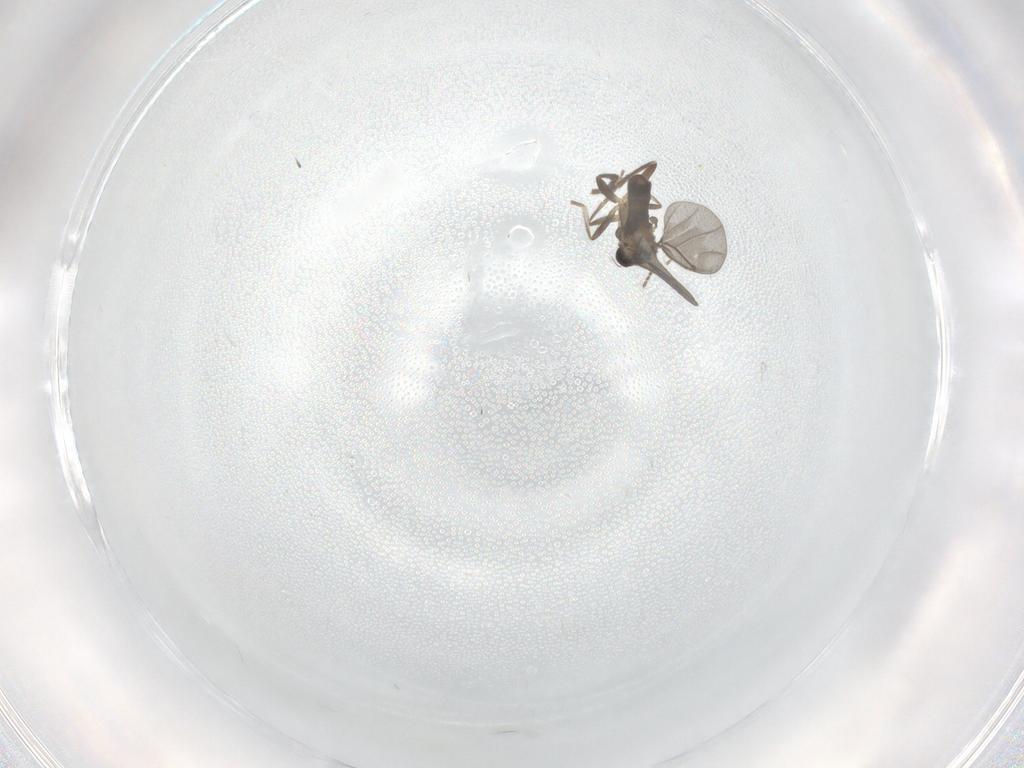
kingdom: Animalia
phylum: Arthropoda
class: Insecta
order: Diptera
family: Phoridae
